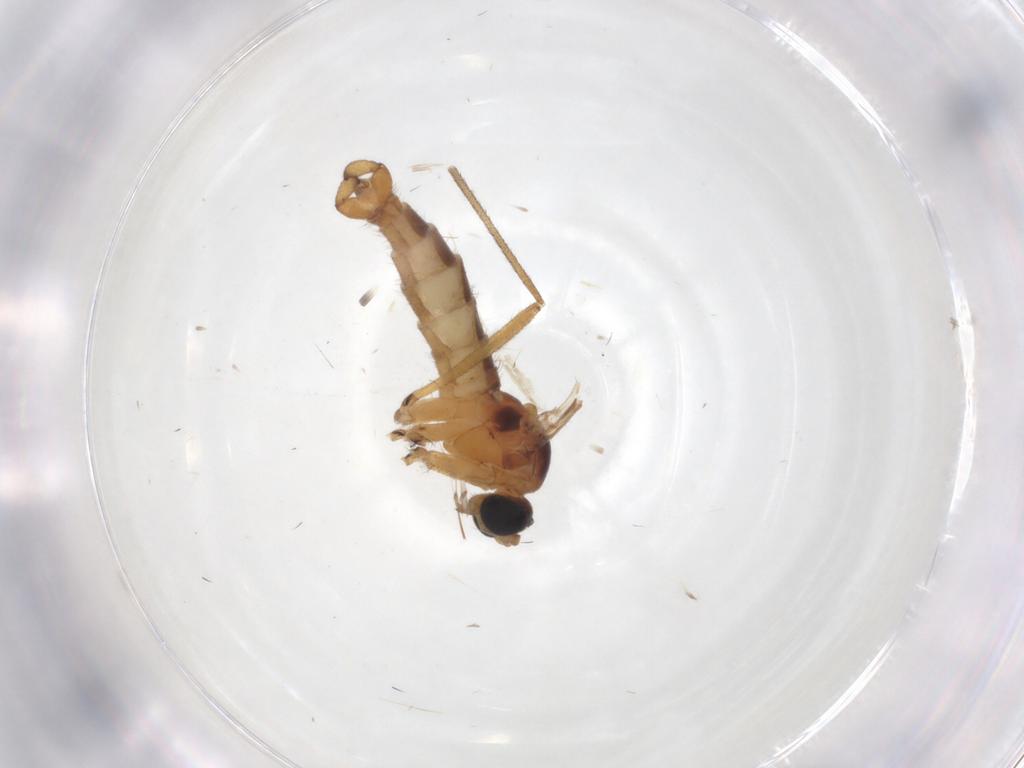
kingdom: Animalia
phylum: Arthropoda
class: Insecta
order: Diptera
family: Sciaridae
